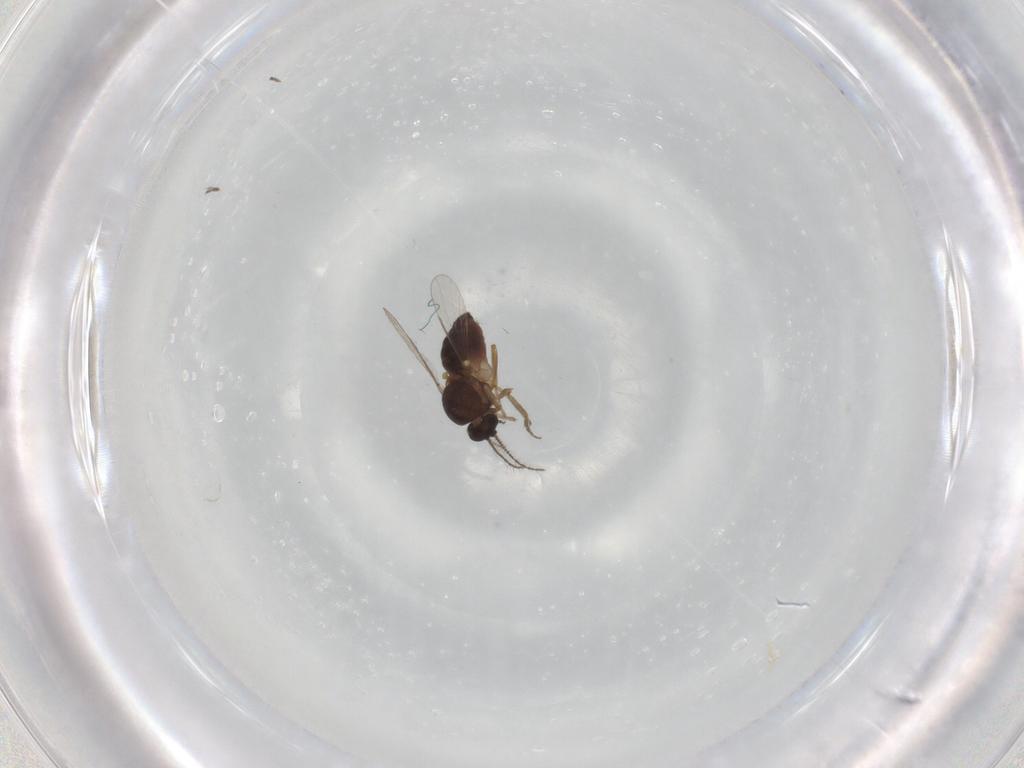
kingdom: Animalia
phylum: Arthropoda
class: Insecta
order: Diptera
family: Ceratopogonidae
